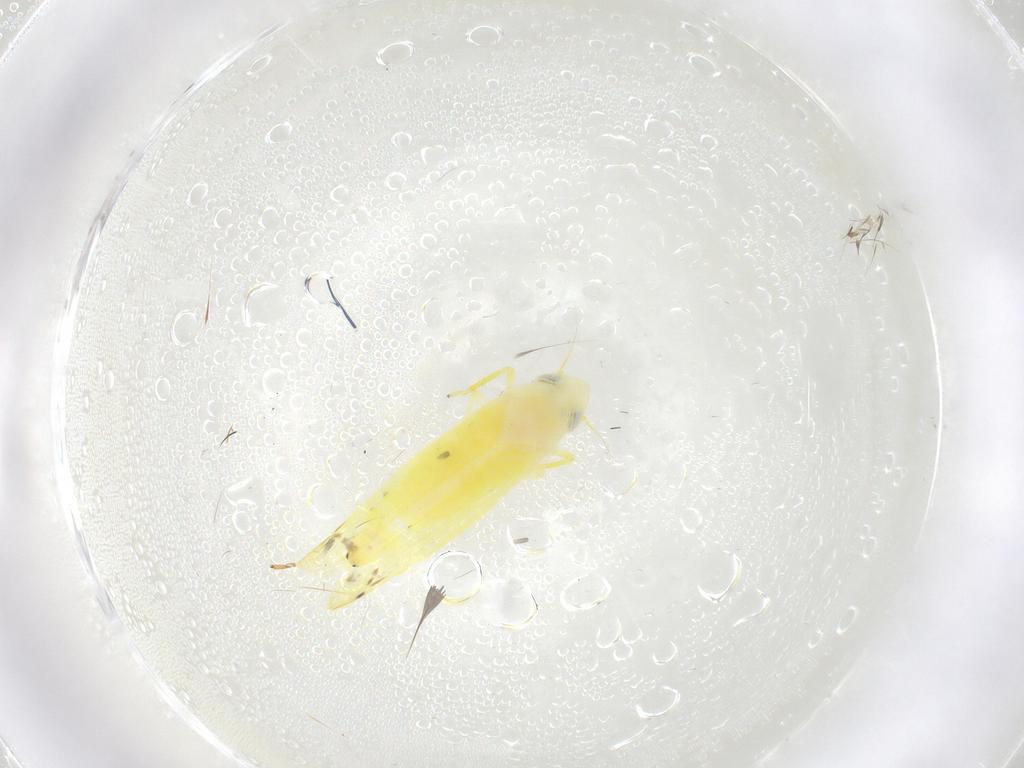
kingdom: Animalia
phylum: Arthropoda
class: Insecta
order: Hemiptera
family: Cicadellidae
